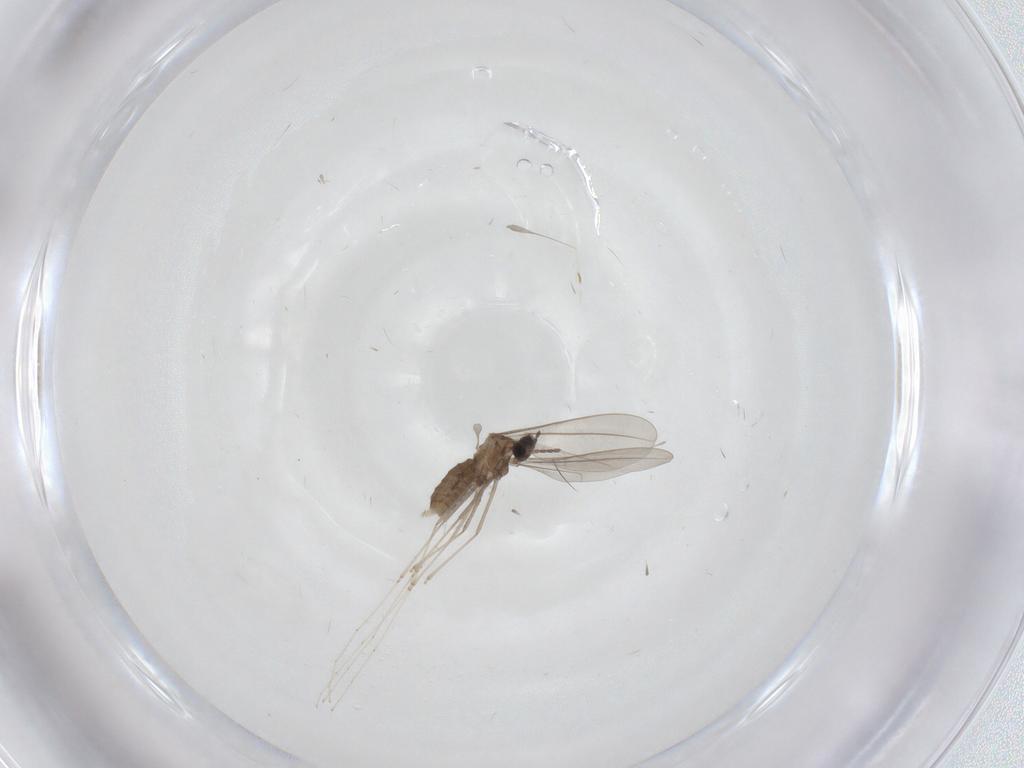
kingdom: Animalia
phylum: Arthropoda
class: Insecta
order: Diptera
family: Cecidomyiidae
